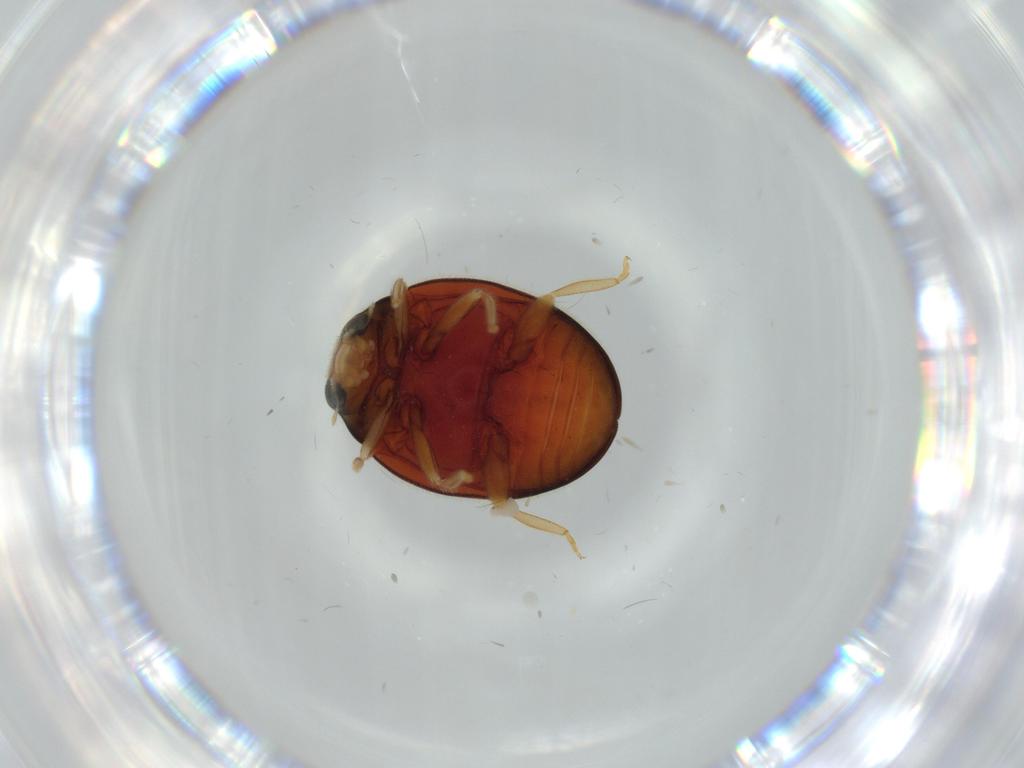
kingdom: Animalia
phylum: Arthropoda
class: Insecta
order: Coleoptera
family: Coccinellidae
